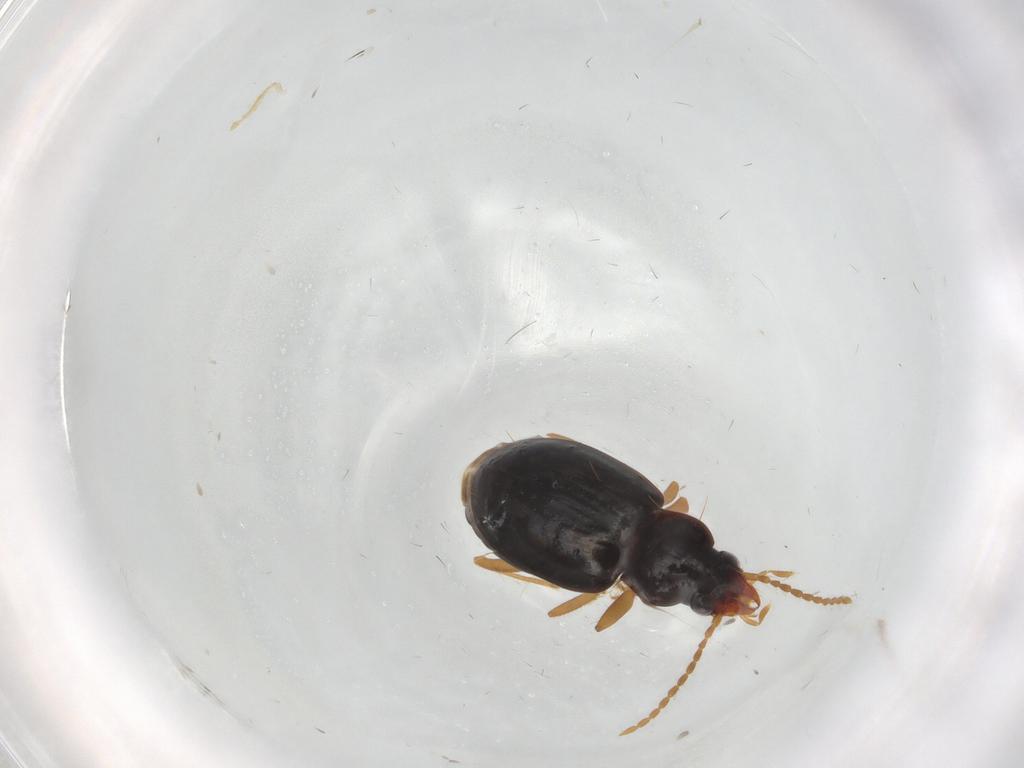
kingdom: Animalia
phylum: Arthropoda
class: Insecta
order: Coleoptera
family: Carabidae
